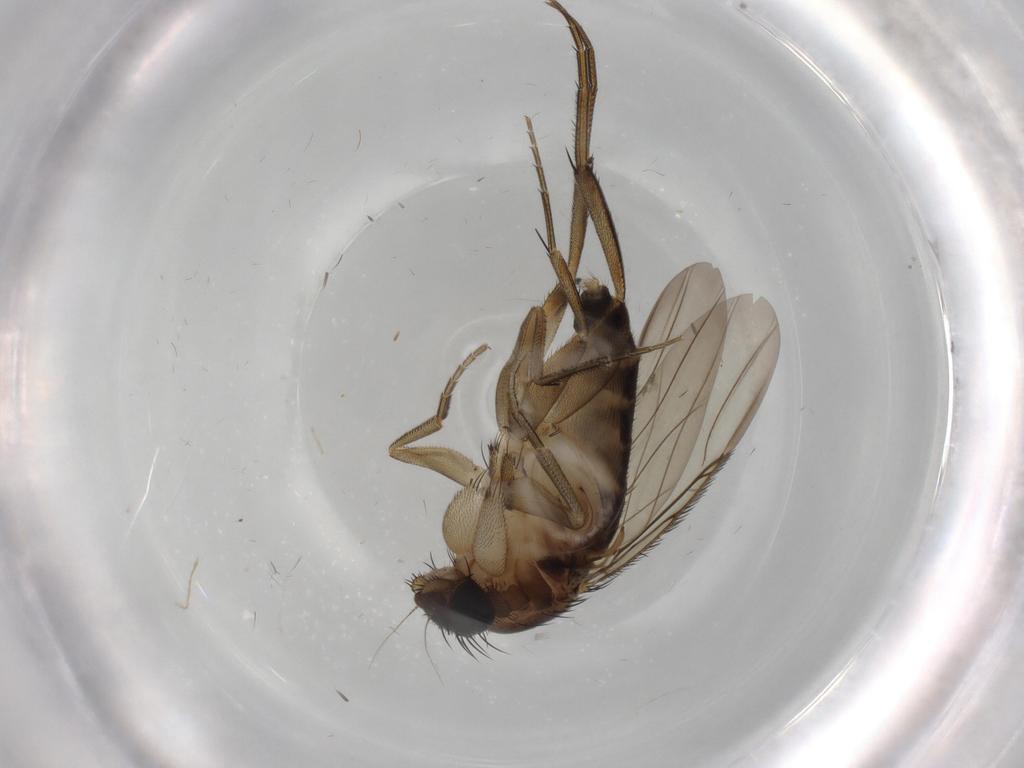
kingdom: Animalia
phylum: Arthropoda
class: Insecta
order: Diptera
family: Phoridae
